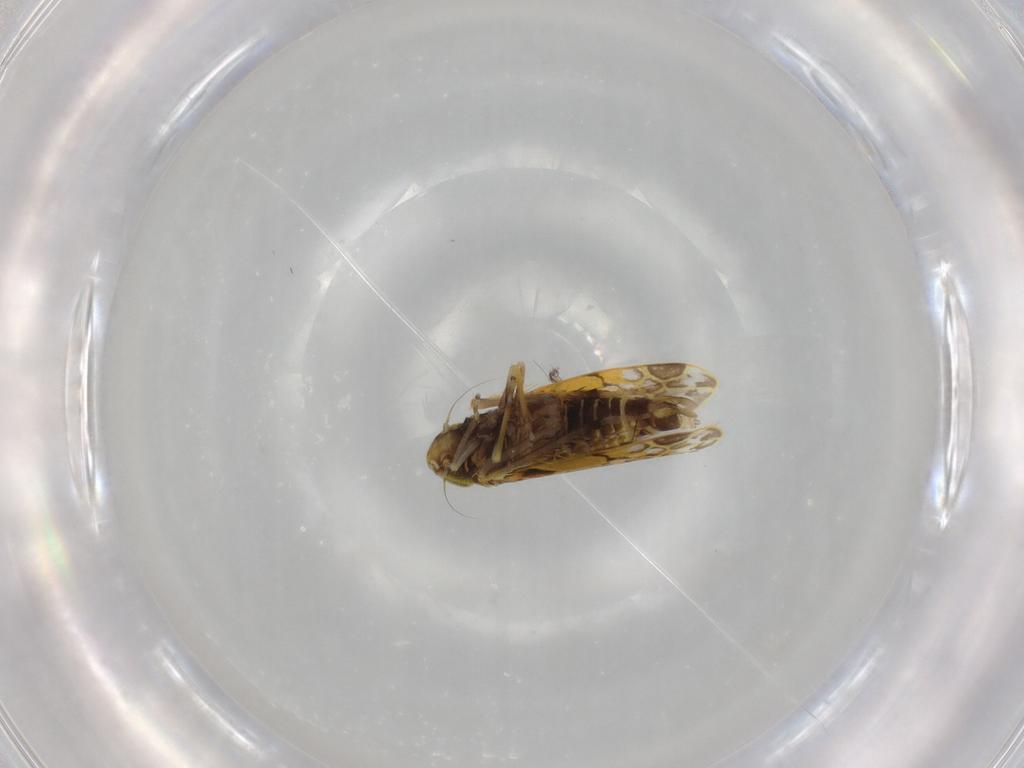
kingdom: Animalia
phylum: Arthropoda
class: Insecta
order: Hemiptera
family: Cicadellidae
